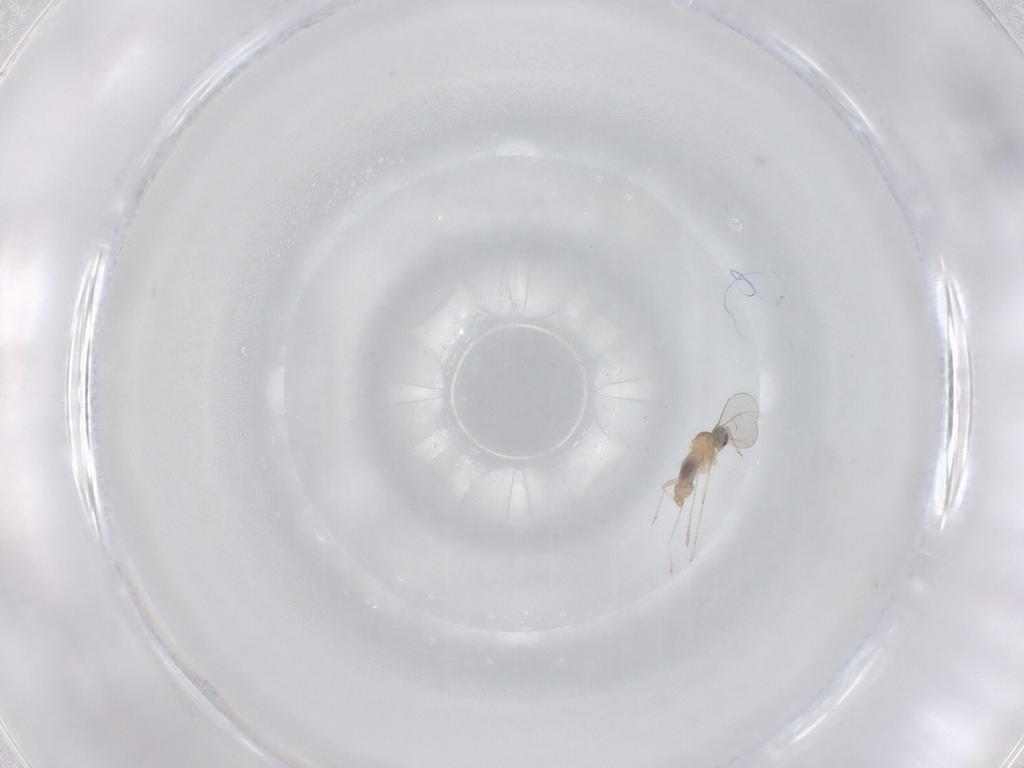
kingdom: Animalia
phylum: Arthropoda
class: Insecta
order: Diptera
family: Cecidomyiidae
